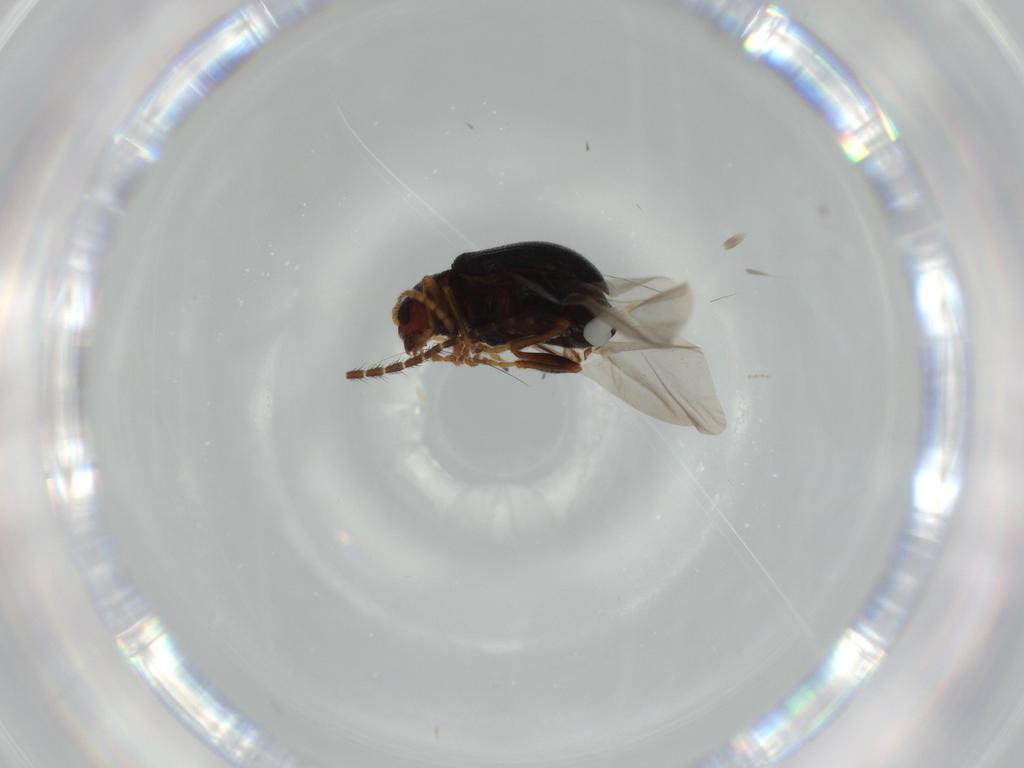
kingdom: Animalia
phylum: Arthropoda
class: Insecta
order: Coleoptera
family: Chrysomelidae
